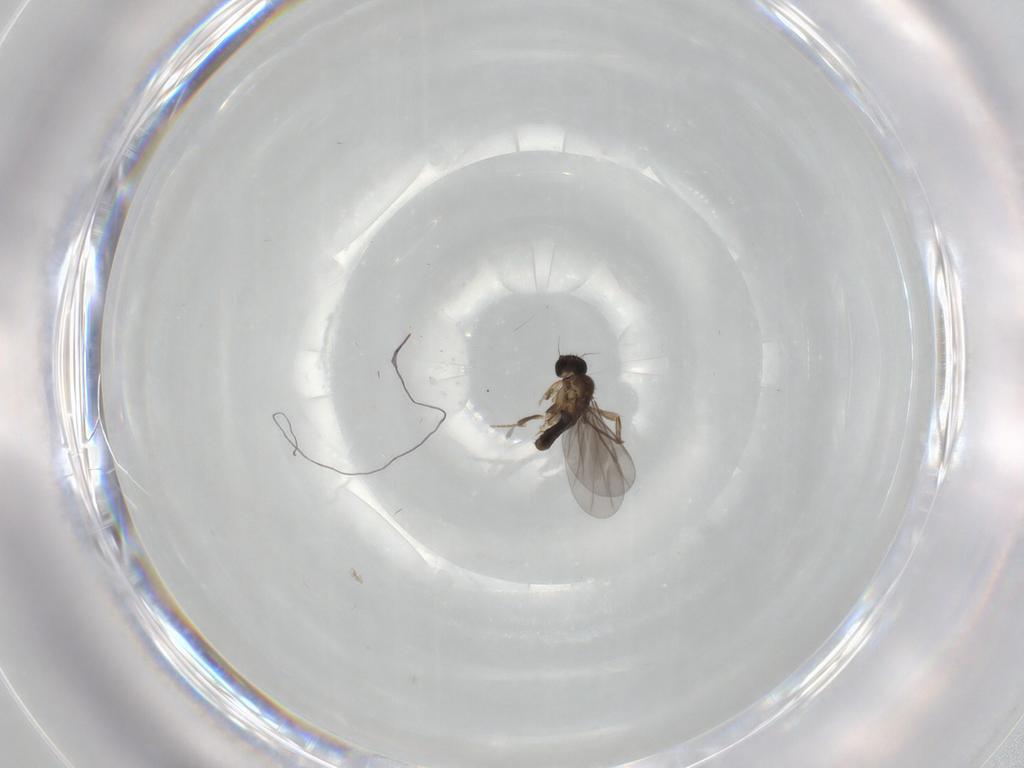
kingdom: Animalia
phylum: Arthropoda
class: Insecta
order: Diptera
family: Phoridae
